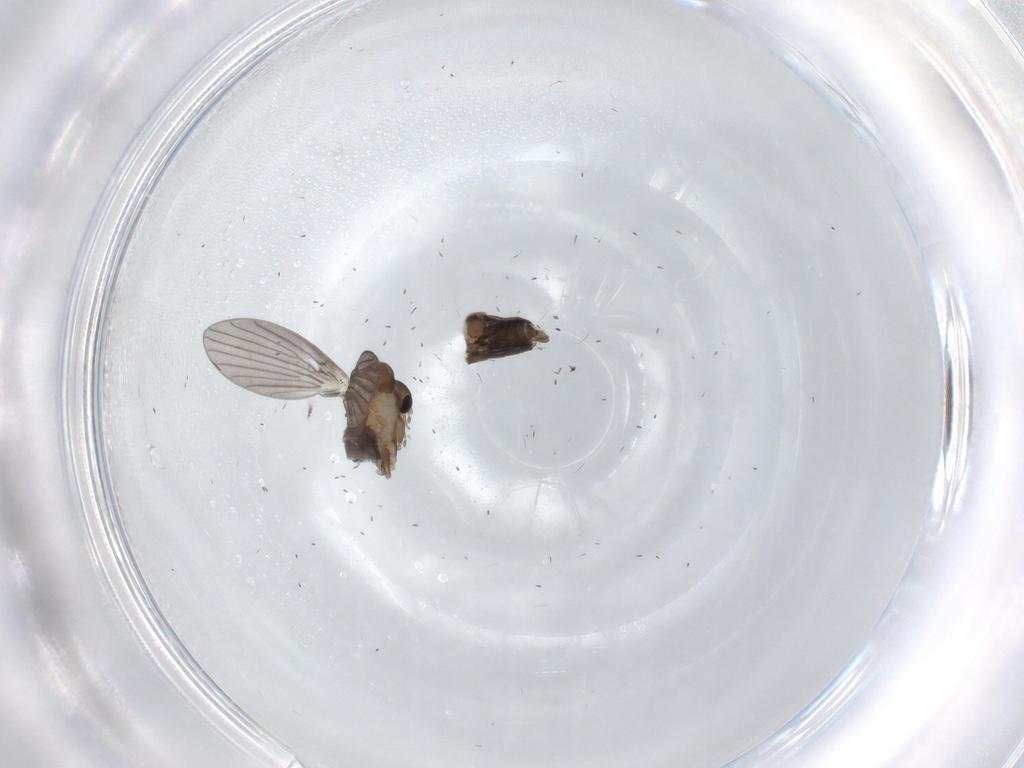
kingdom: Animalia
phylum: Arthropoda
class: Insecta
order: Diptera
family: Psychodidae
